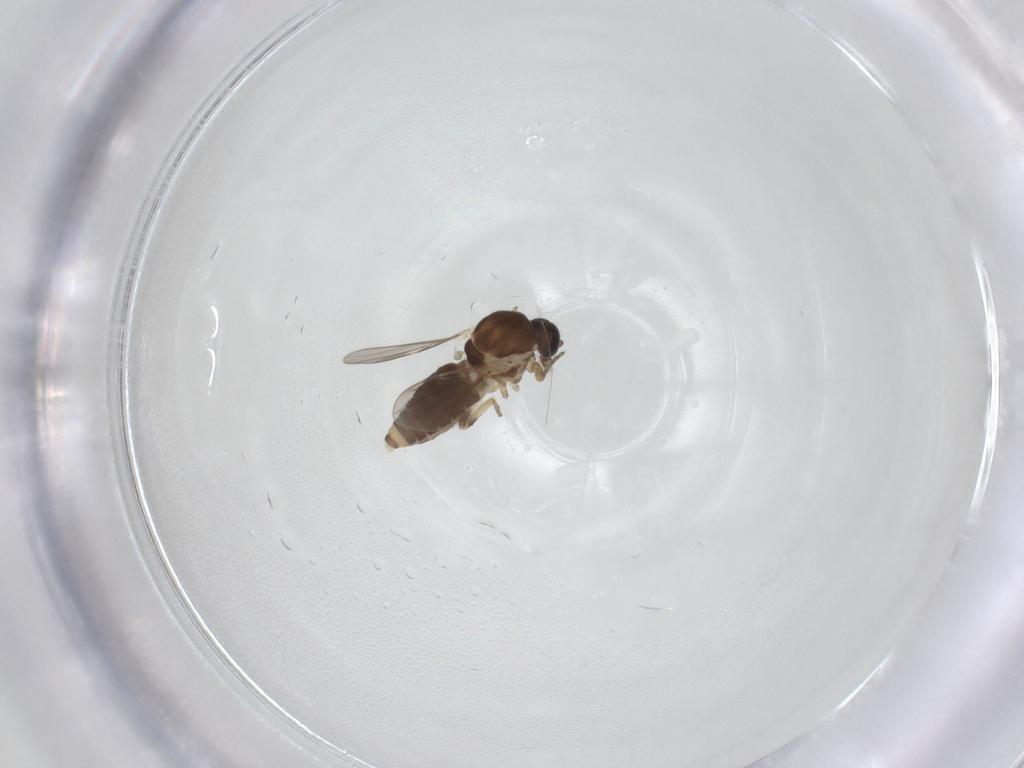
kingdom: Animalia
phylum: Arthropoda
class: Insecta
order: Diptera
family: Ceratopogonidae
